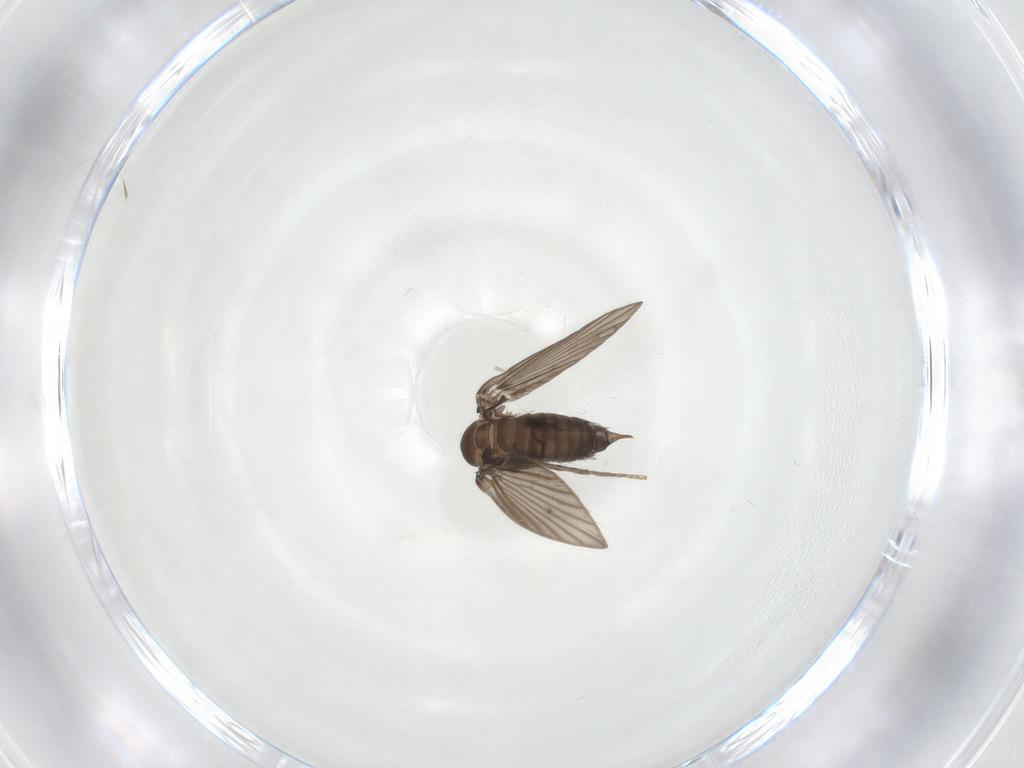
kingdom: Animalia
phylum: Arthropoda
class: Insecta
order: Diptera
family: Psychodidae
